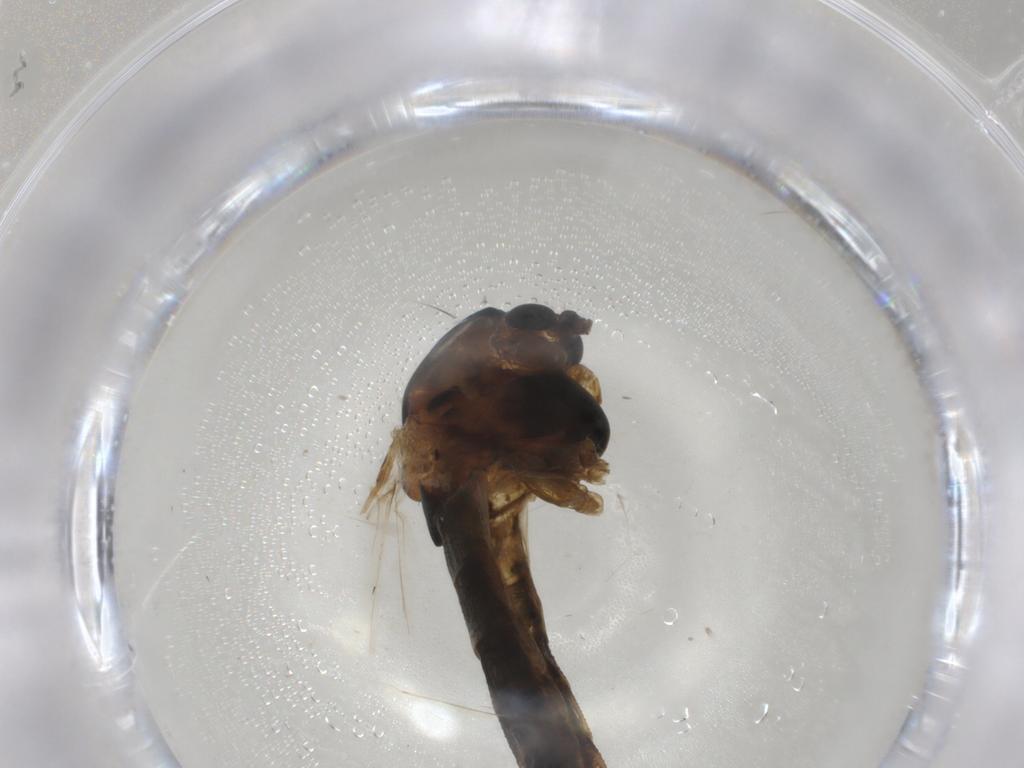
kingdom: Animalia
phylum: Arthropoda
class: Insecta
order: Diptera
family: Chironomidae
